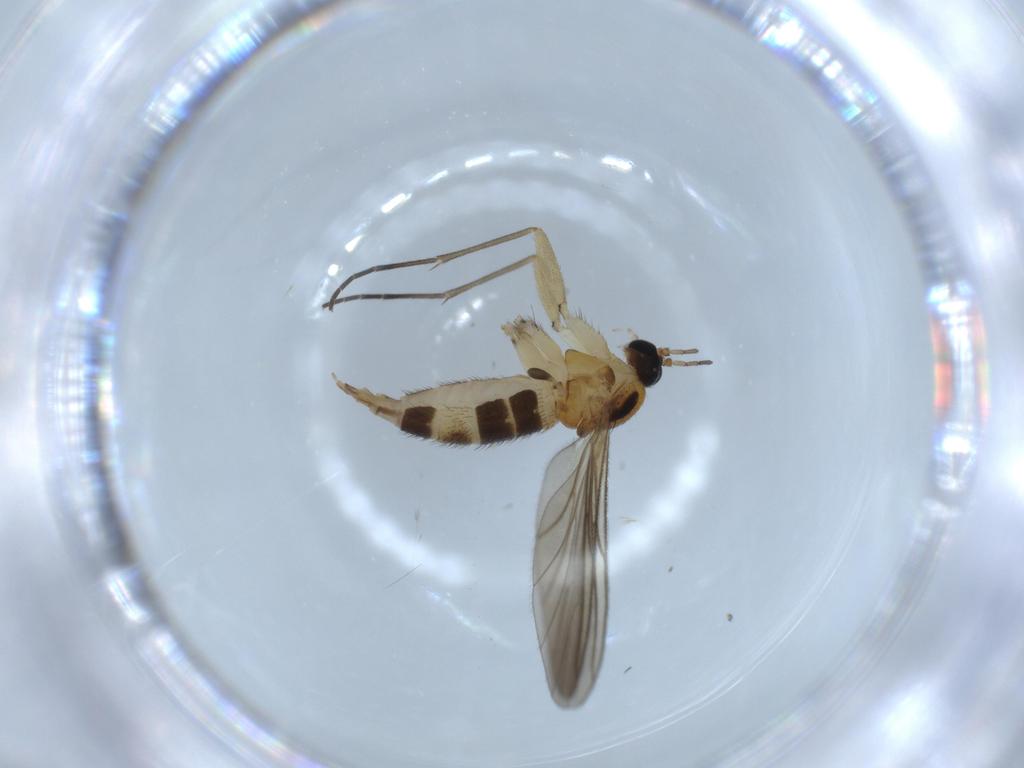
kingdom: Animalia
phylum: Arthropoda
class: Insecta
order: Diptera
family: Sciaridae
